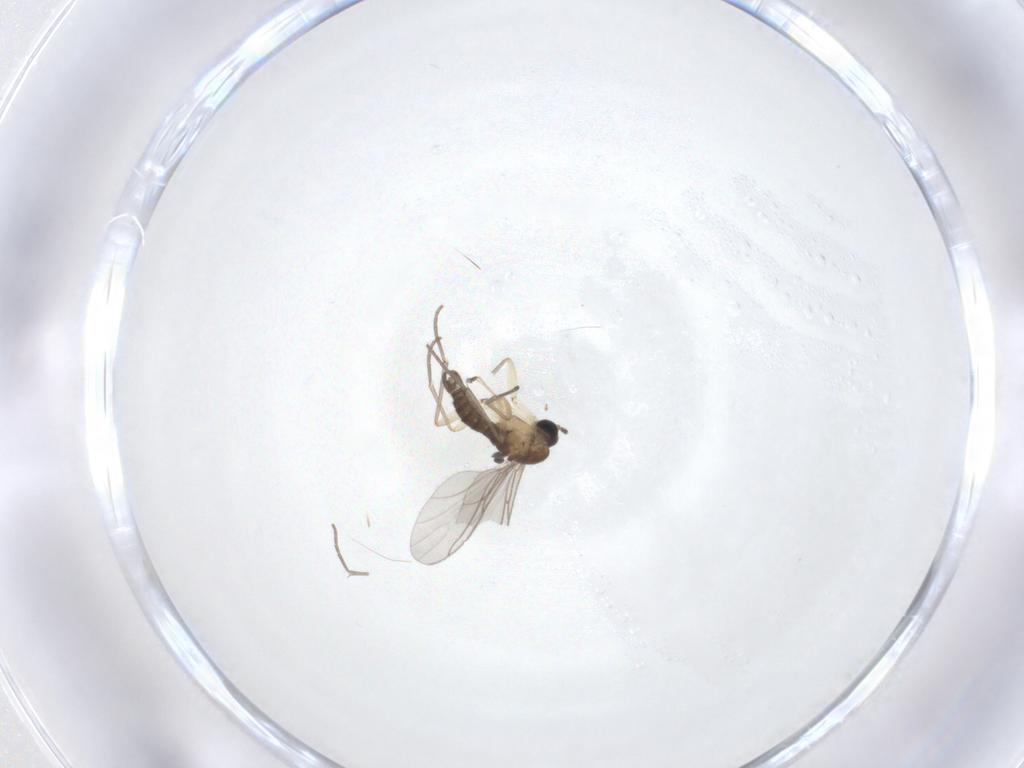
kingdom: Animalia
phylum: Arthropoda
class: Insecta
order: Diptera
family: Sciaridae
